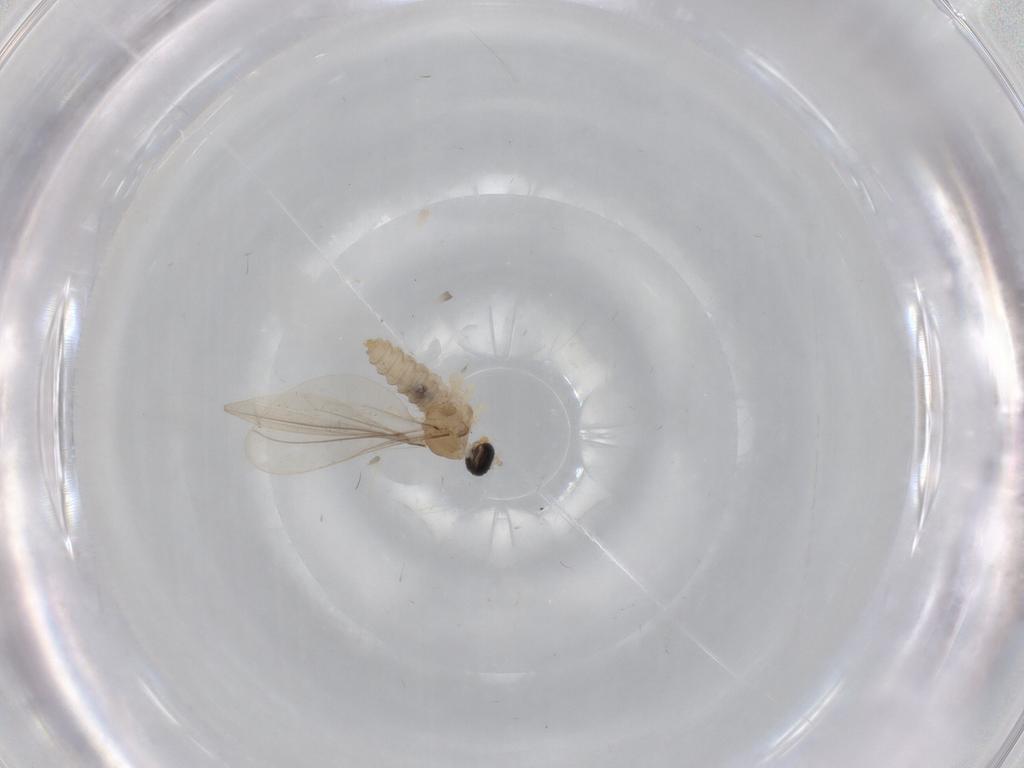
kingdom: Animalia
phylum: Arthropoda
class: Insecta
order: Diptera
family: Cecidomyiidae
